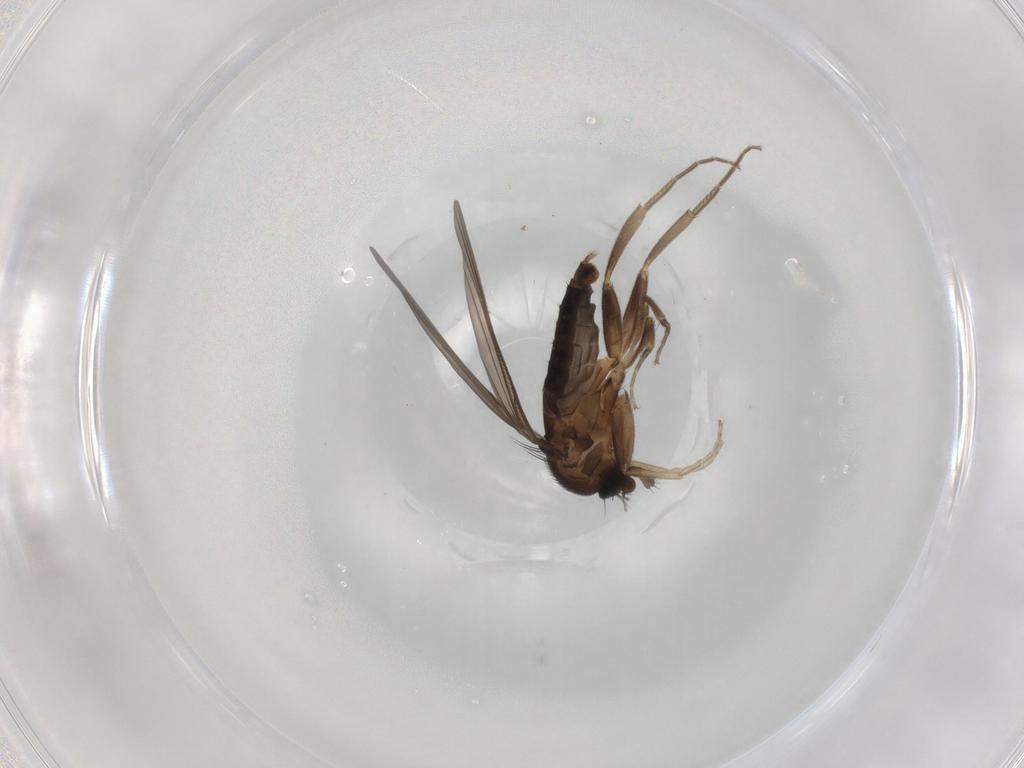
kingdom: Animalia
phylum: Arthropoda
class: Insecta
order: Diptera
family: Phoridae
